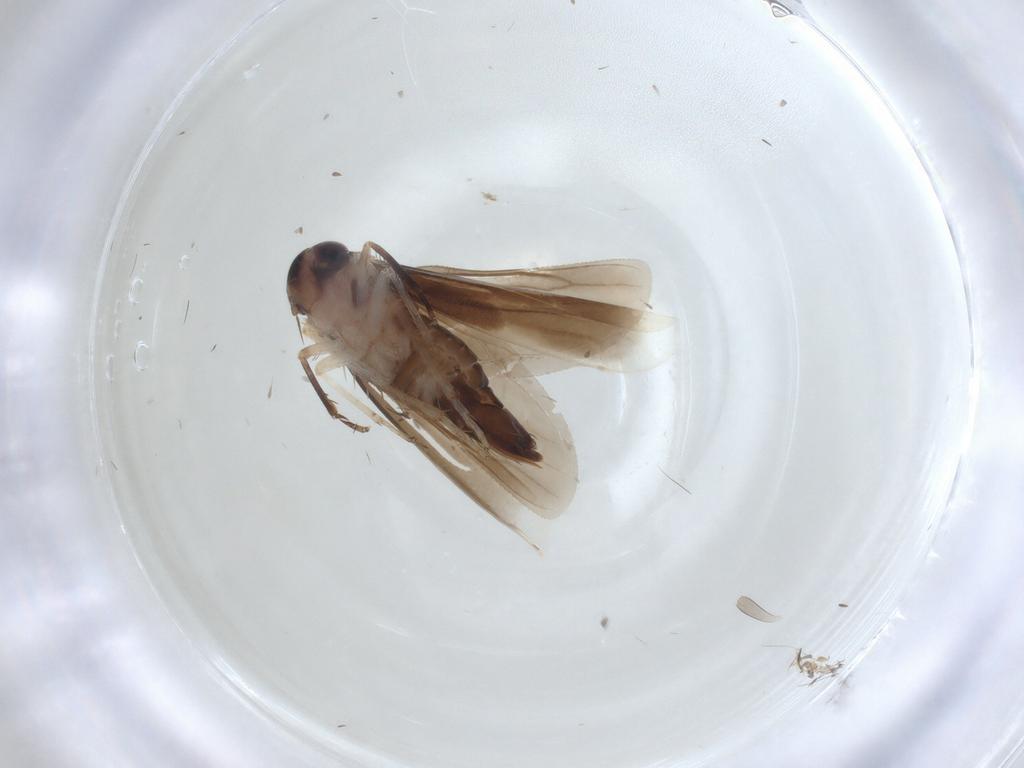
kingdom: Animalia
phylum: Arthropoda
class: Insecta
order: Hemiptera
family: Cicadellidae
